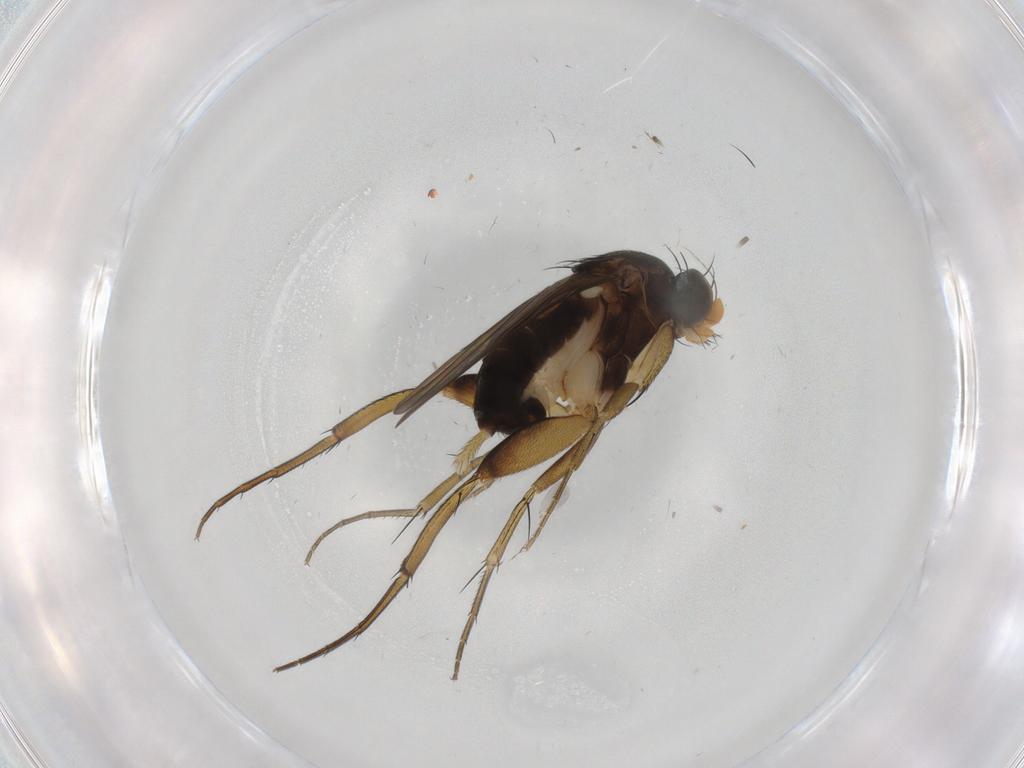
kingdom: Animalia
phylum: Arthropoda
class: Insecta
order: Diptera
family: Phoridae
